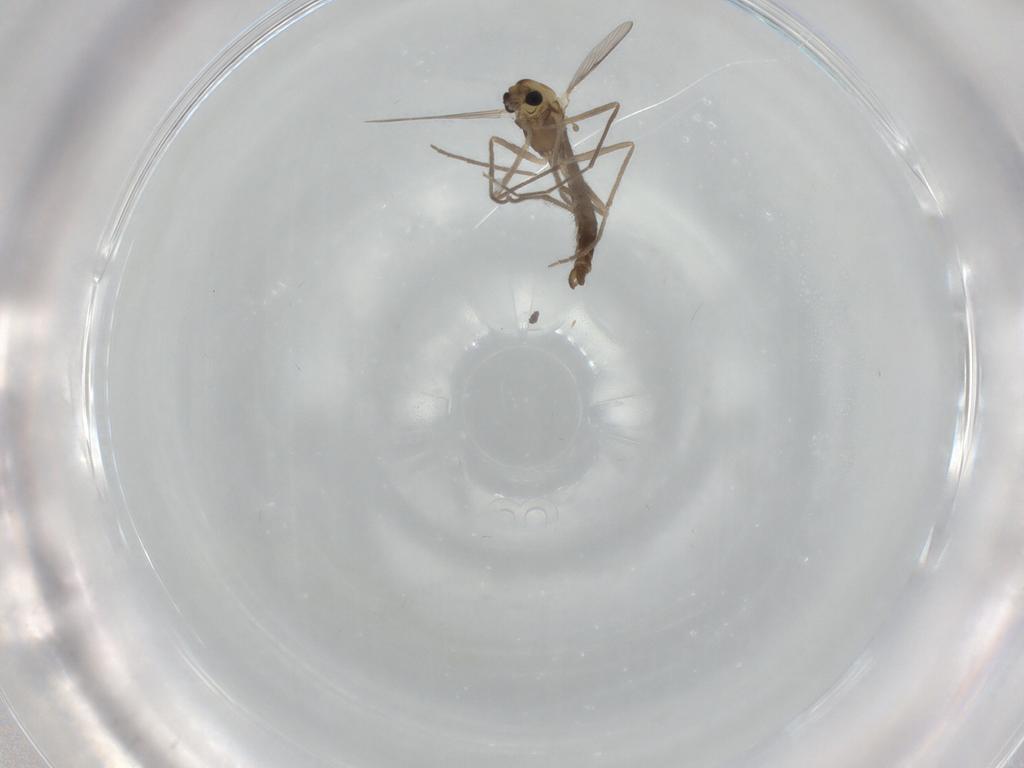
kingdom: Animalia
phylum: Arthropoda
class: Insecta
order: Diptera
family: Chironomidae
